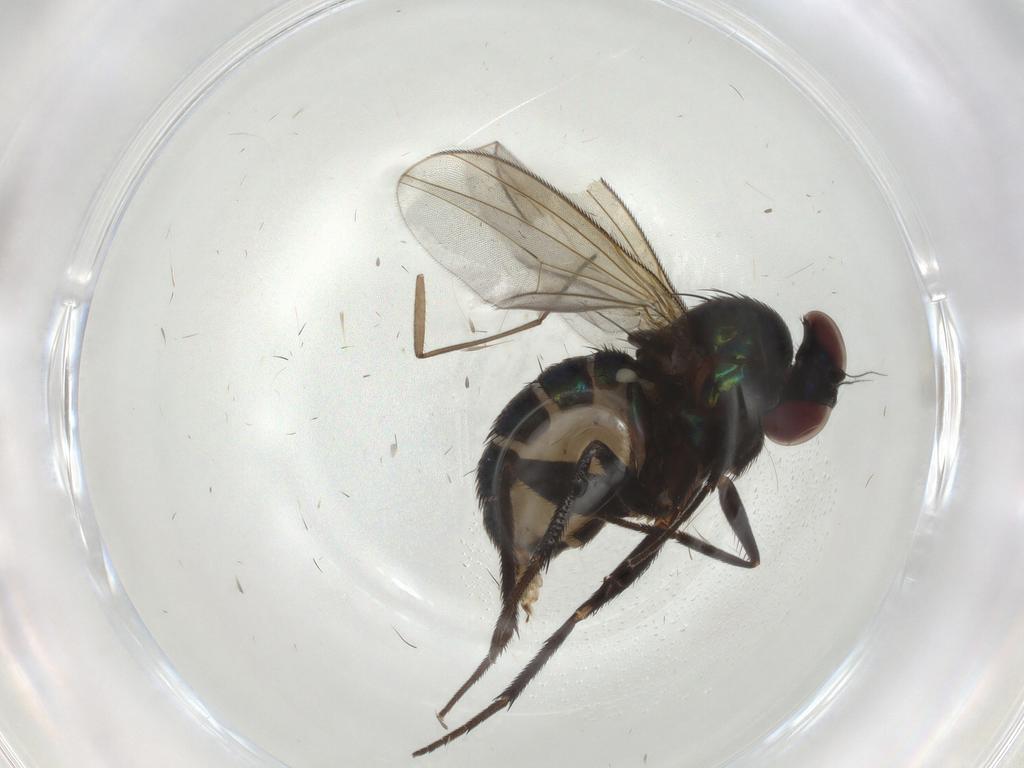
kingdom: Animalia
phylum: Arthropoda
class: Insecta
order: Diptera
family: Dolichopodidae
